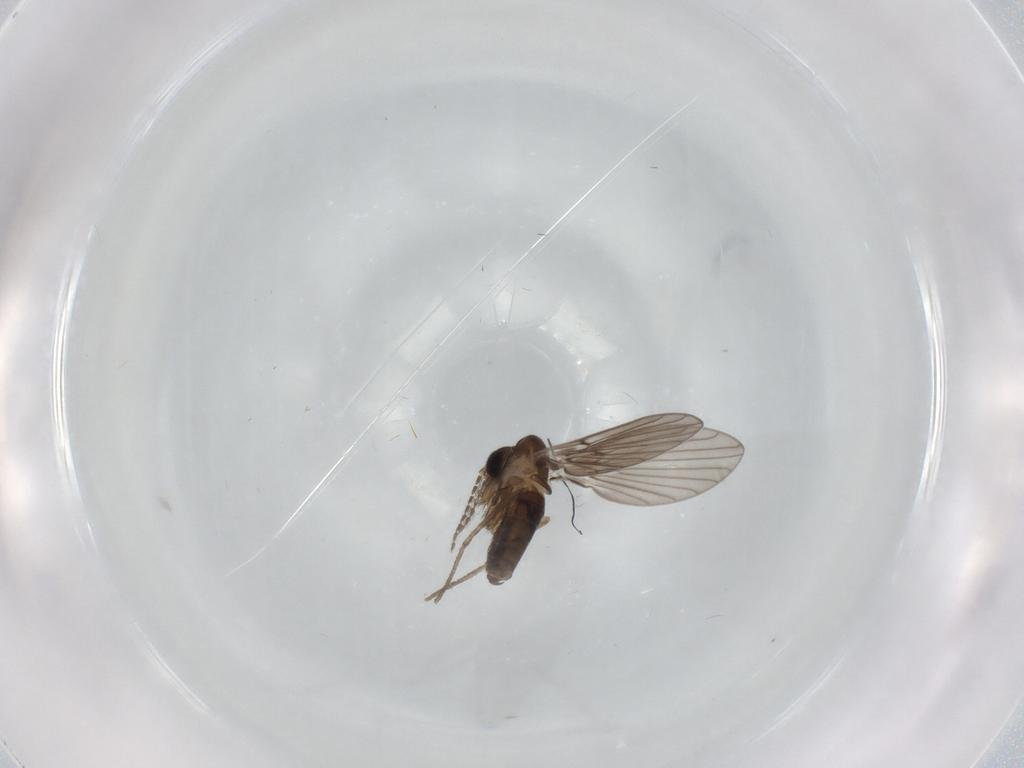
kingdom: Animalia
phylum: Arthropoda
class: Insecta
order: Diptera
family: Psychodidae
